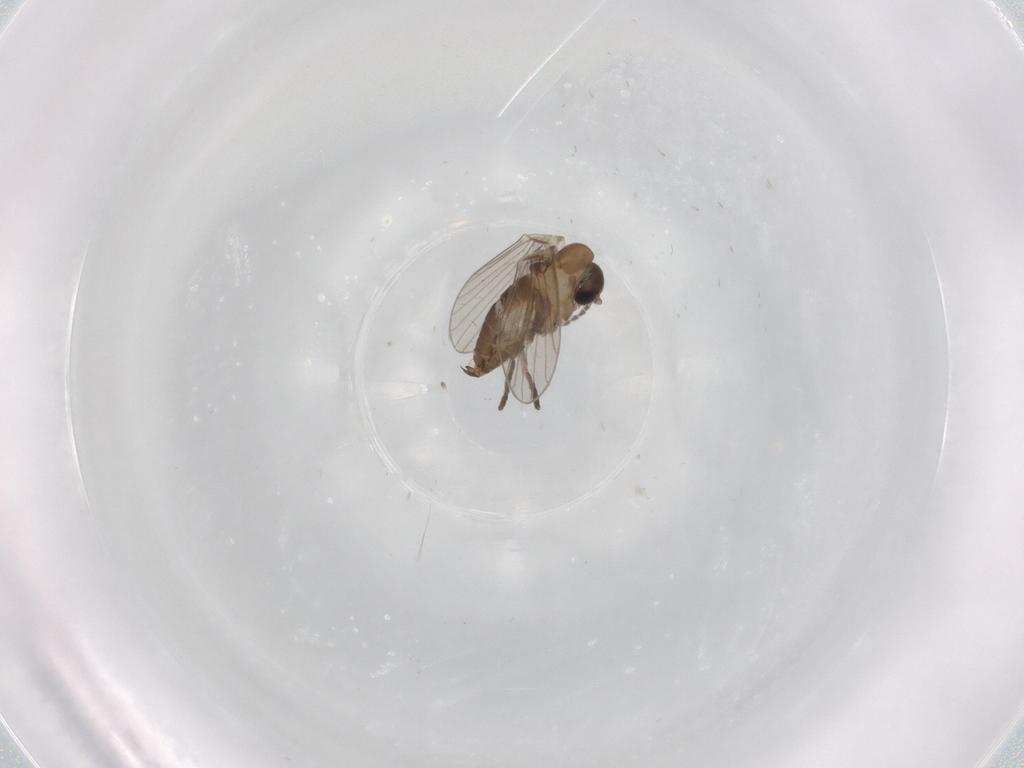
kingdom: Animalia
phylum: Arthropoda
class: Insecta
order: Diptera
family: Psychodidae
